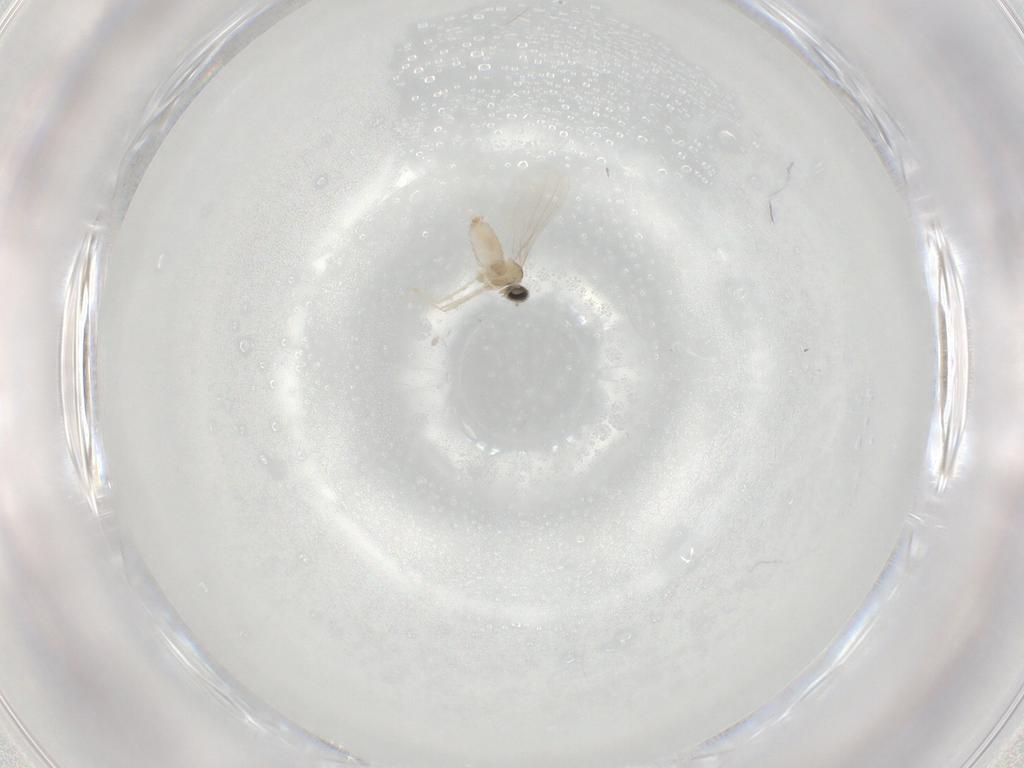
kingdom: Animalia
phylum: Arthropoda
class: Insecta
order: Diptera
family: Cecidomyiidae
